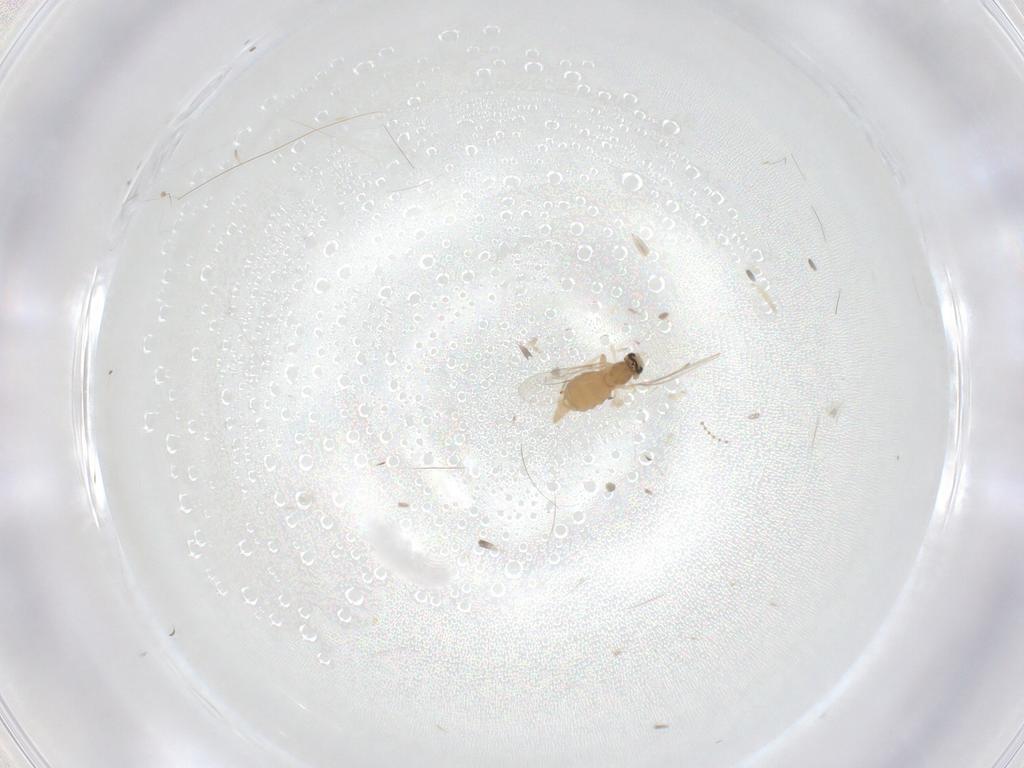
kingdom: Animalia
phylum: Arthropoda
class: Insecta
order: Diptera
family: Cecidomyiidae
